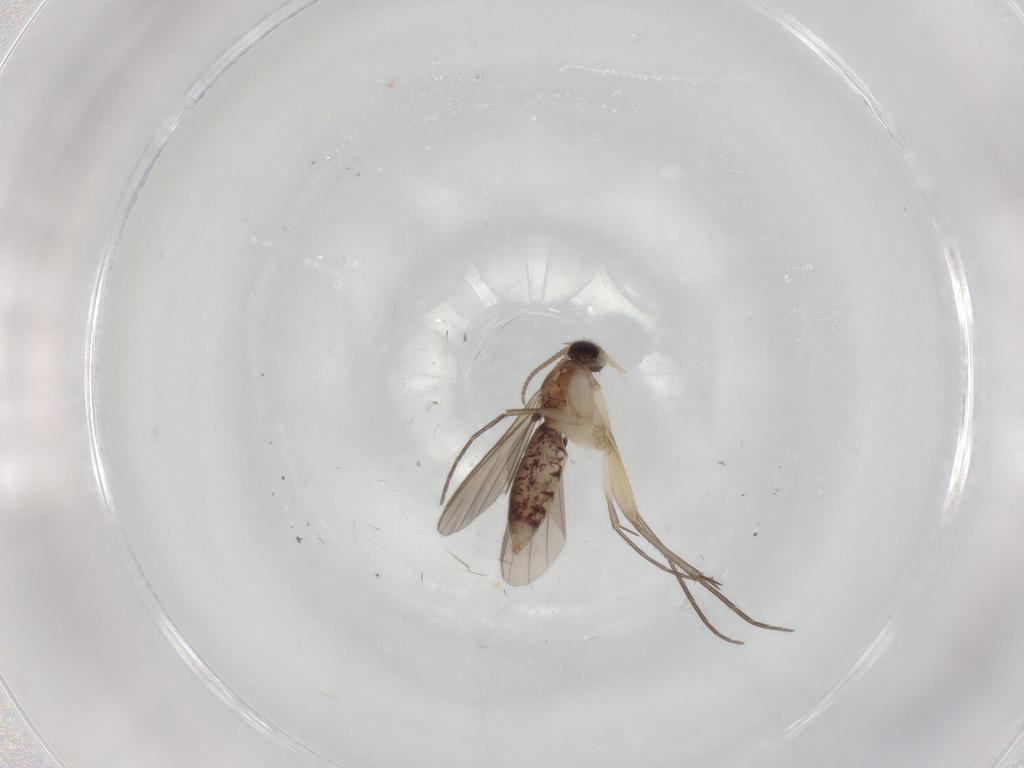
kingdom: Animalia
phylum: Arthropoda
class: Insecta
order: Diptera
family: Mycetophilidae
